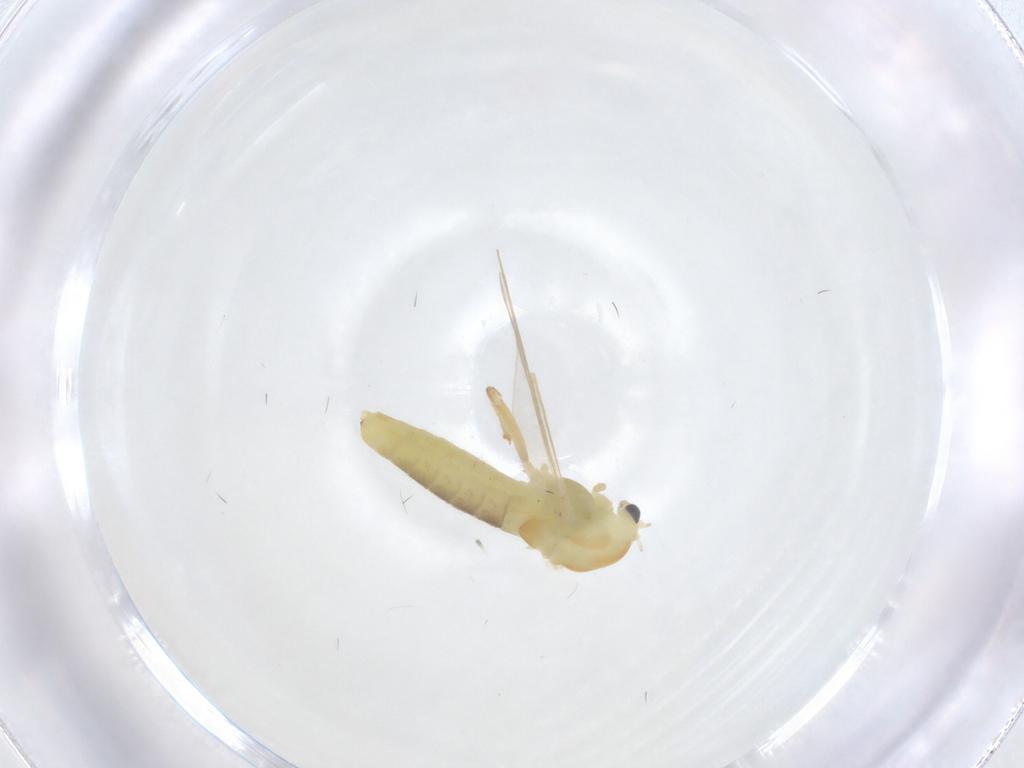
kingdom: Animalia
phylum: Arthropoda
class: Insecta
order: Diptera
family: Chironomidae
